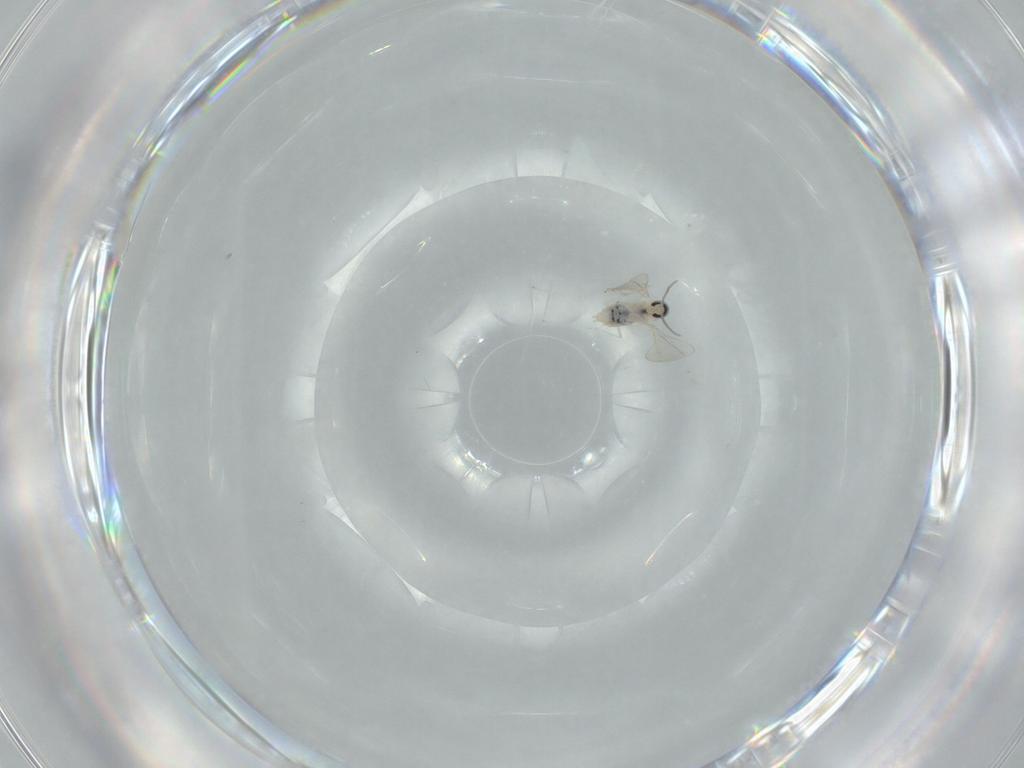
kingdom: Animalia
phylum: Arthropoda
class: Insecta
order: Diptera
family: Cecidomyiidae
